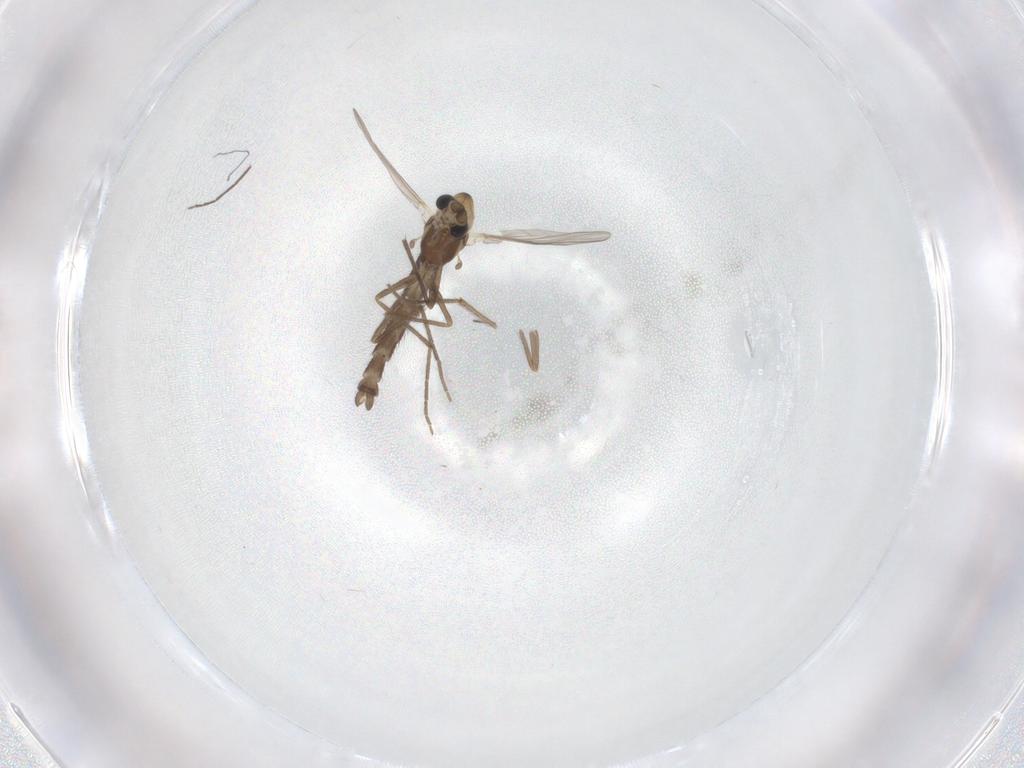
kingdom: Animalia
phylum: Arthropoda
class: Insecta
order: Diptera
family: Chironomidae
